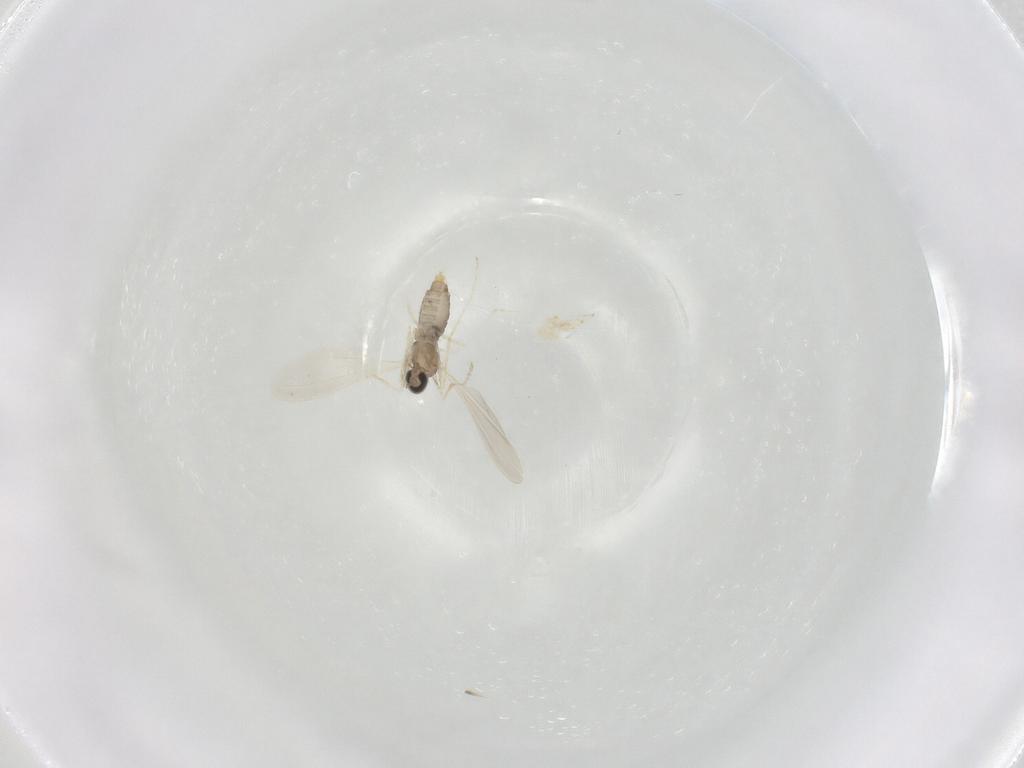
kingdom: Animalia
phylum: Arthropoda
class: Insecta
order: Diptera
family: Cecidomyiidae
